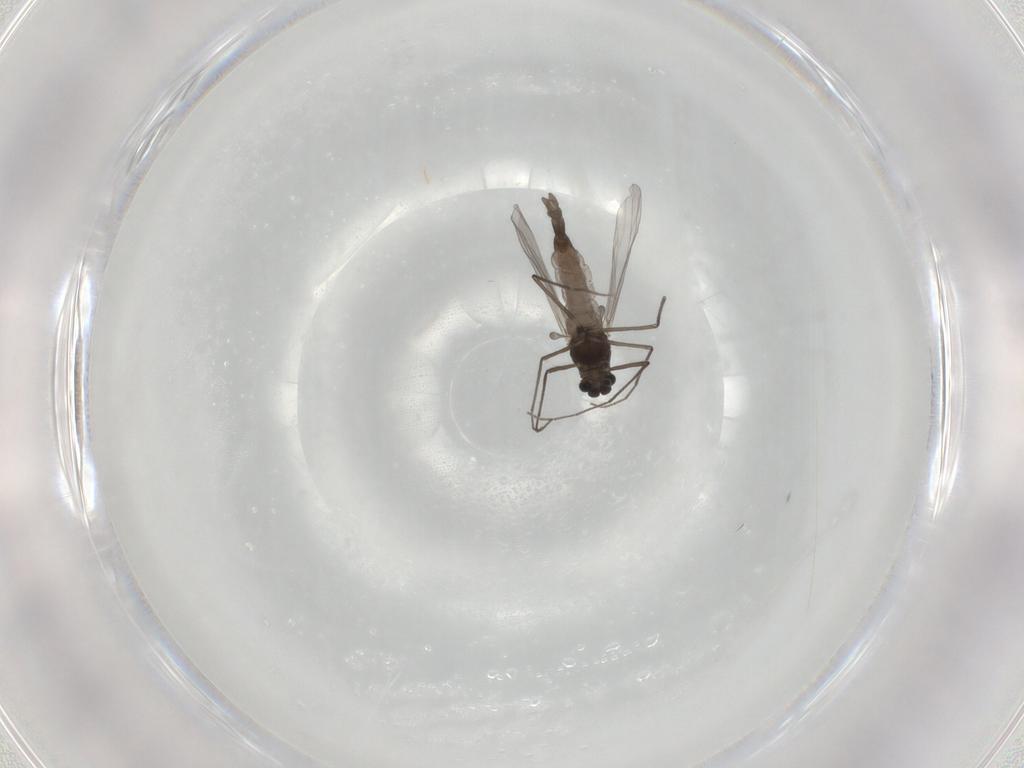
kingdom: Animalia
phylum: Arthropoda
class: Insecta
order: Diptera
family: Chironomidae
